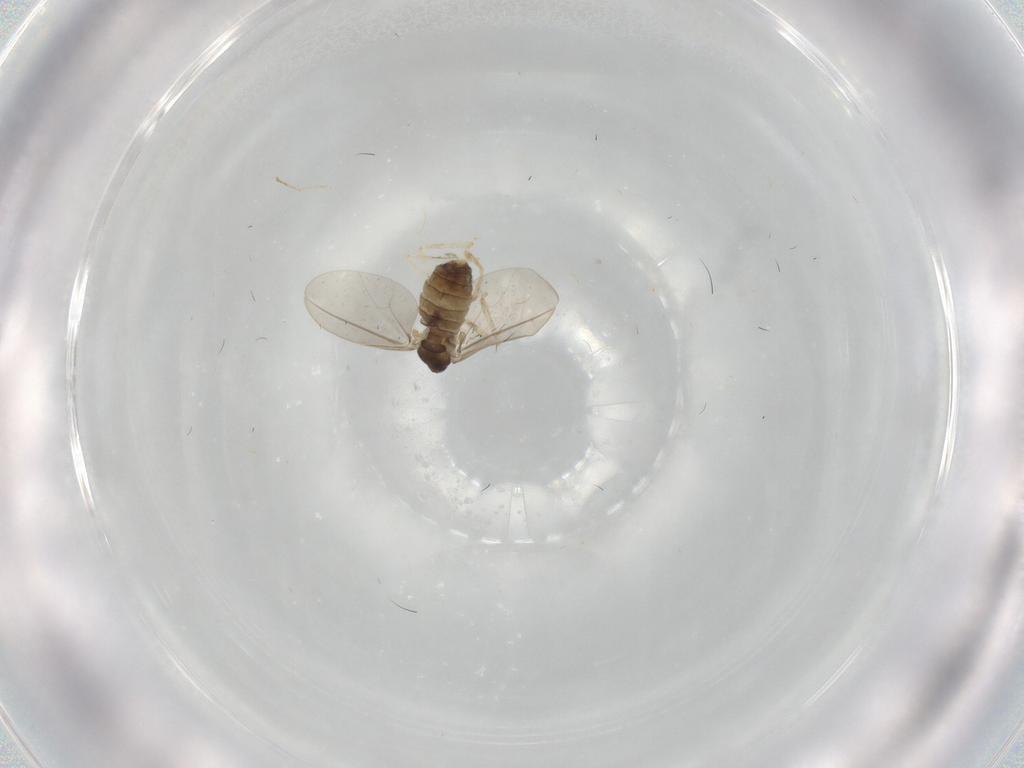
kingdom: Animalia
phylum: Arthropoda
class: Insecta
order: Diptera
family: Cecidomyiidae
